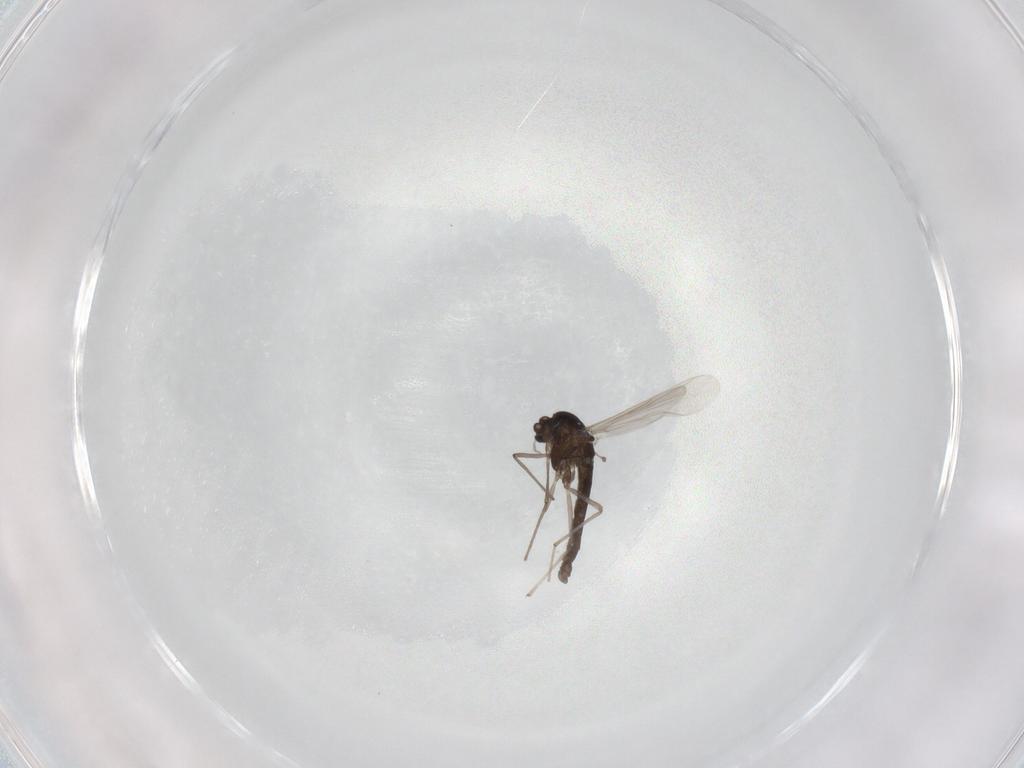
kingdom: Animalia
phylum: Arthropoda
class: Insecta
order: Diptera
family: Chironomidae
